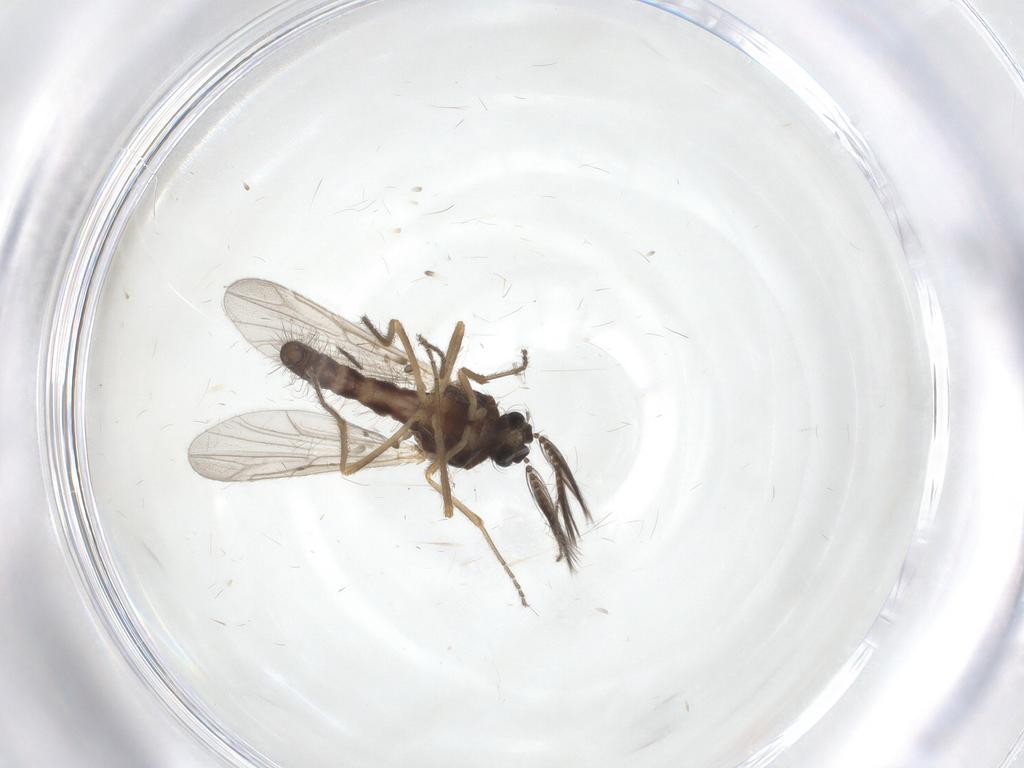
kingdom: Animalia
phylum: Arthropoda
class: Insecta
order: Diptera
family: Ceratopogonidae
